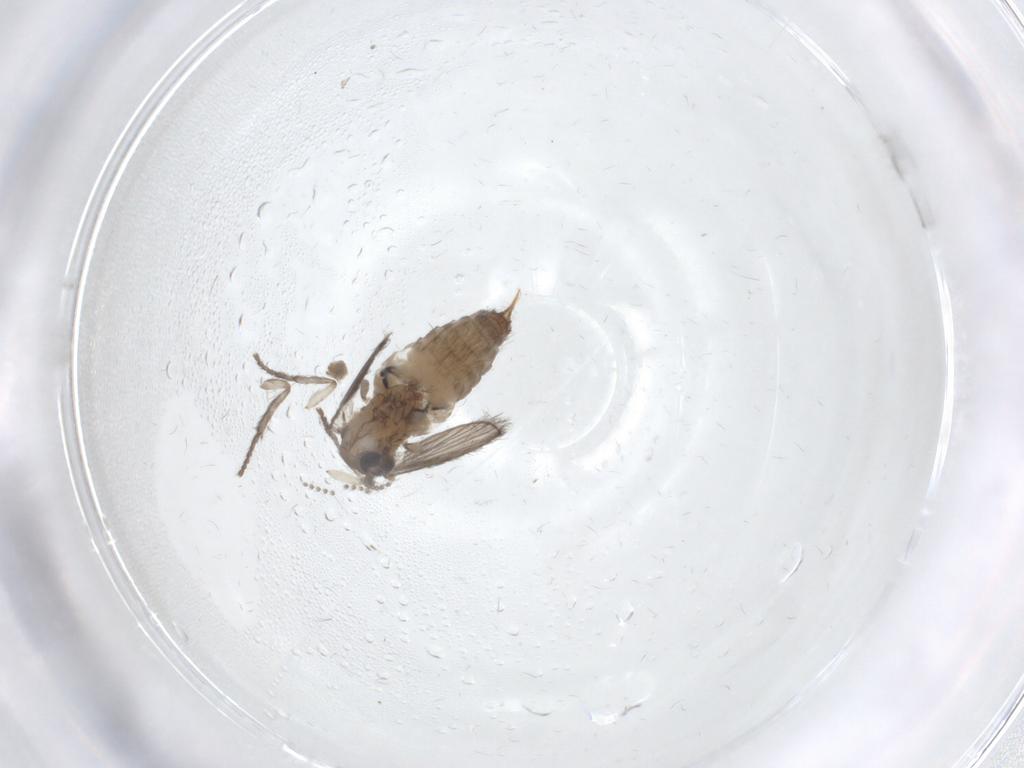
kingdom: Animalia
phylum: Arthropoda
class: Insecta
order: Diptera
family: Psychodidae
